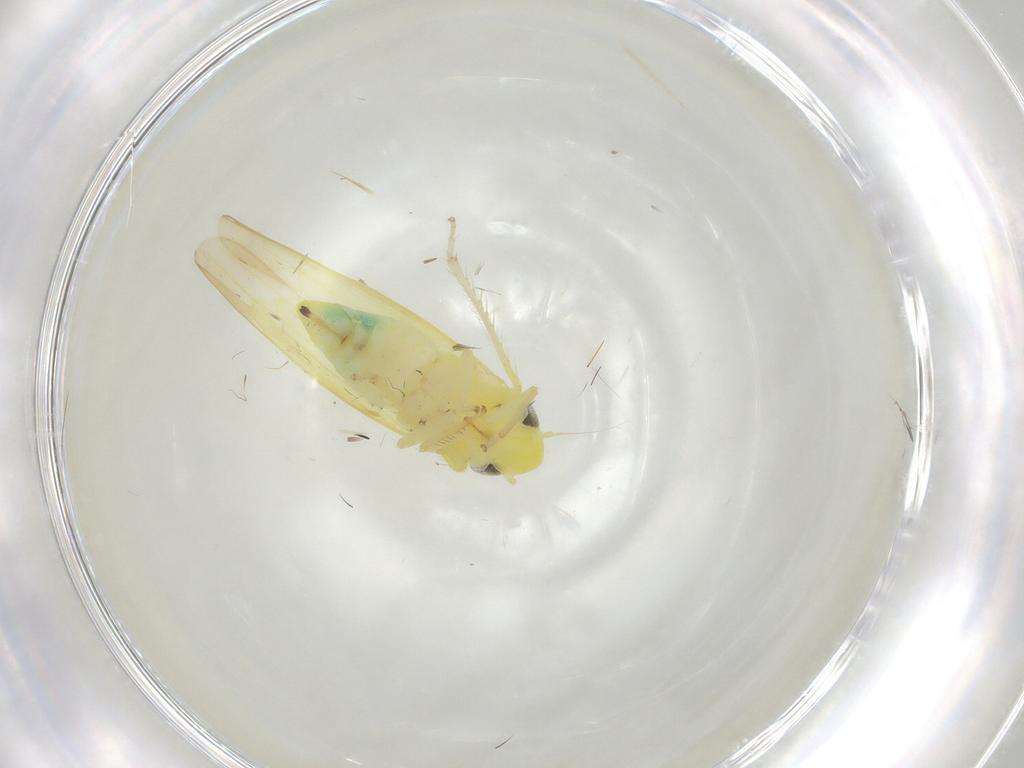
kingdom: Animalia
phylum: Arthropoda
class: Insecta
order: Hemiptera
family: Cicadellidae
